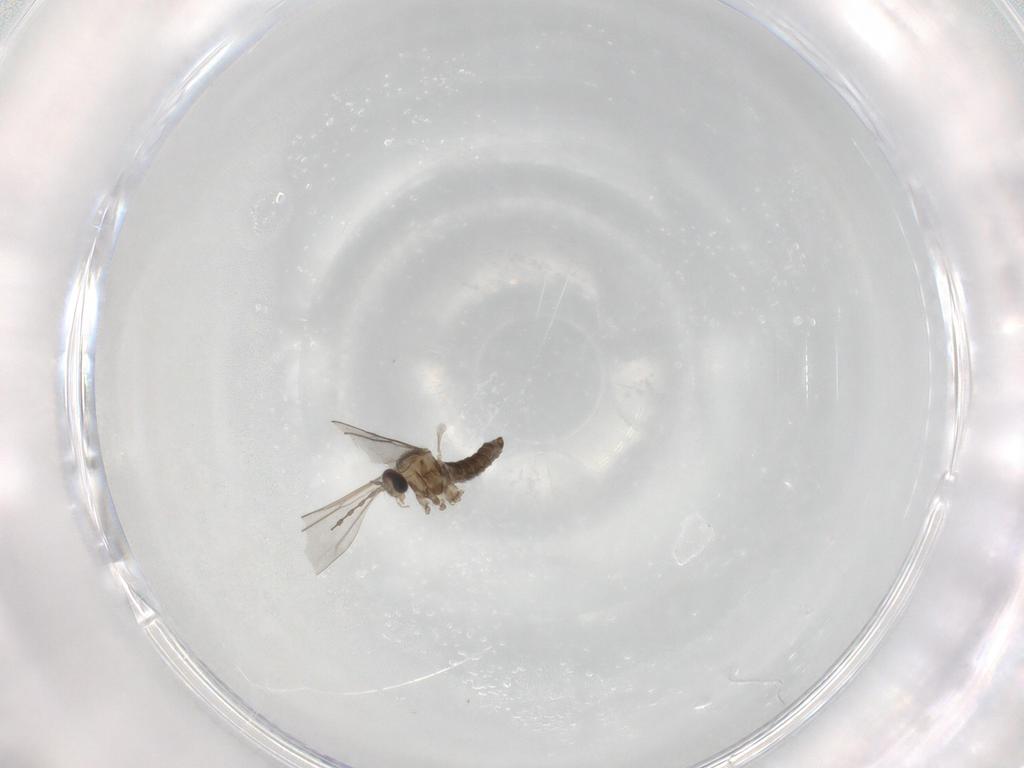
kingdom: Animalia
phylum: Arthropoda
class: Insecta
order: Diptera
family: Cecidomyiidae
